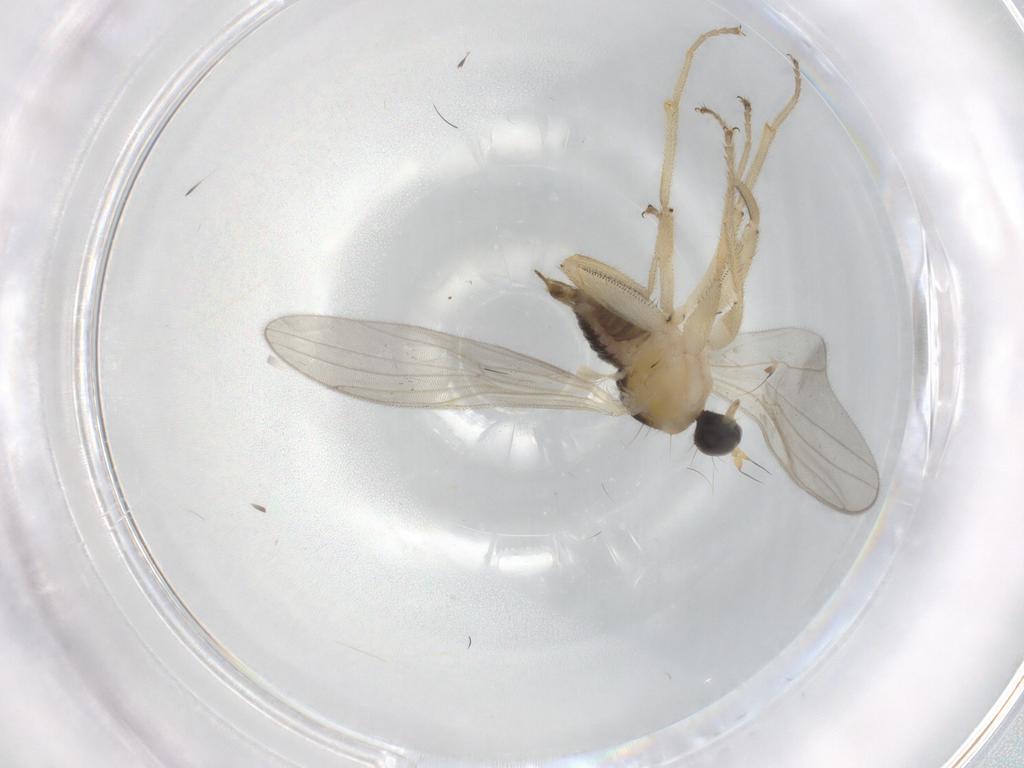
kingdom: Animalia
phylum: Arthropoda
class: Insecta
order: Diptera
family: Hybotidae
